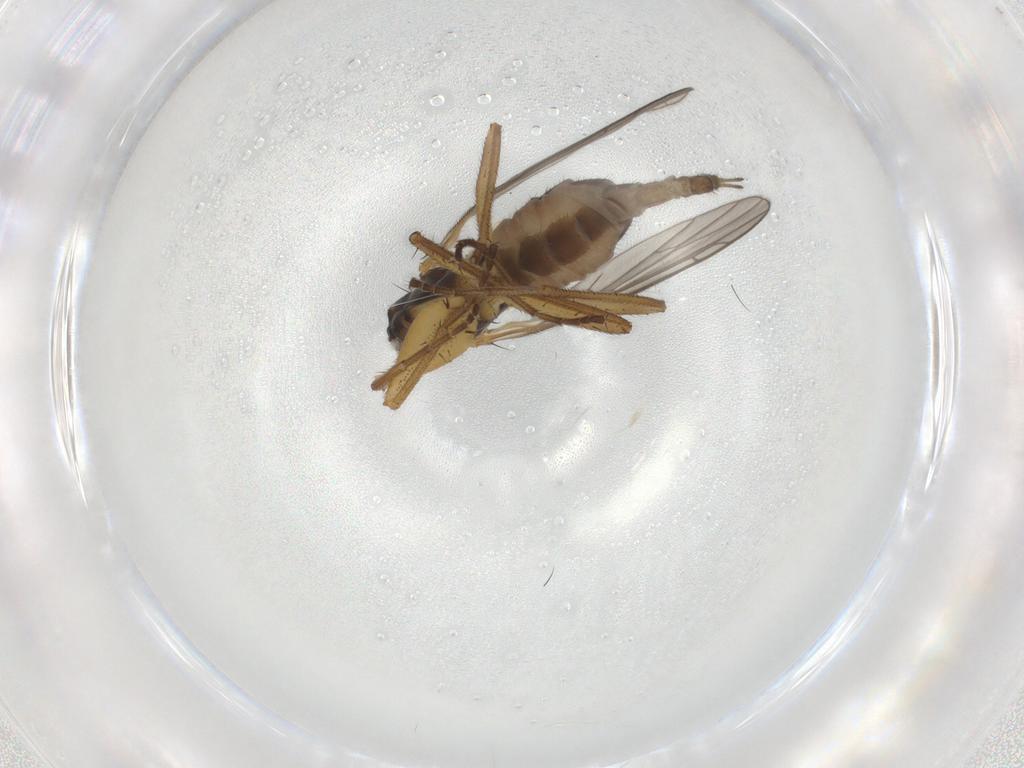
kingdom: Animalia
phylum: Arthropoda
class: Insecta
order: Diptera
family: Empididae
